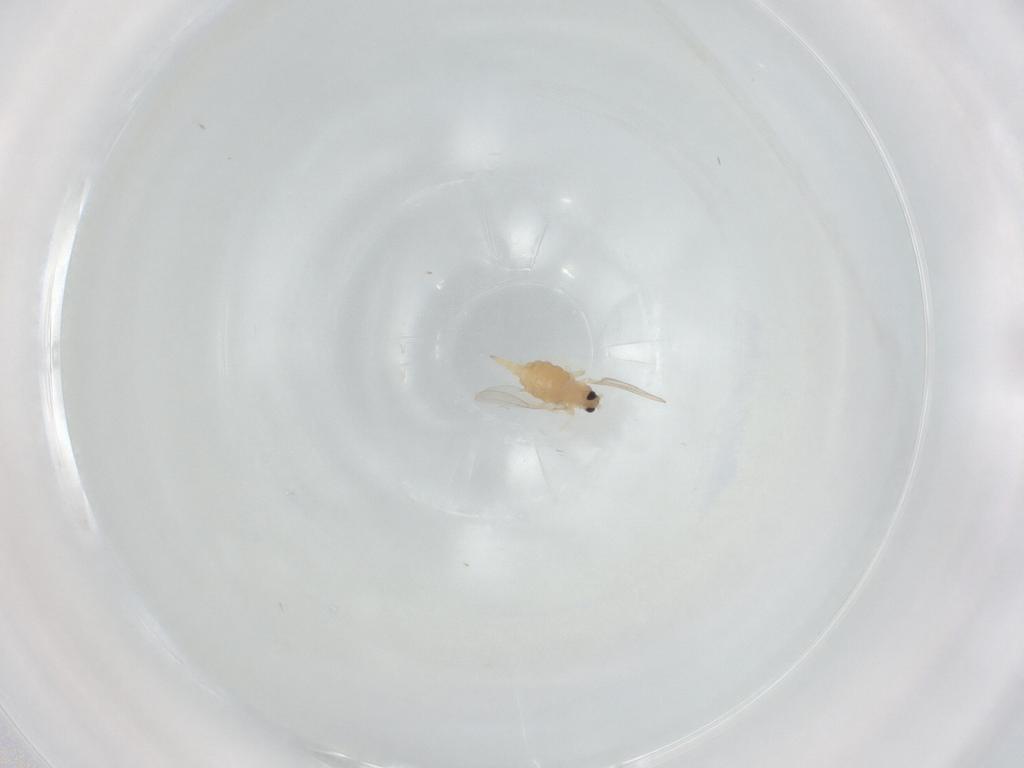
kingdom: Animalia
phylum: Arthropoda
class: Insecta
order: Diptera
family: Cecidomyiidae
